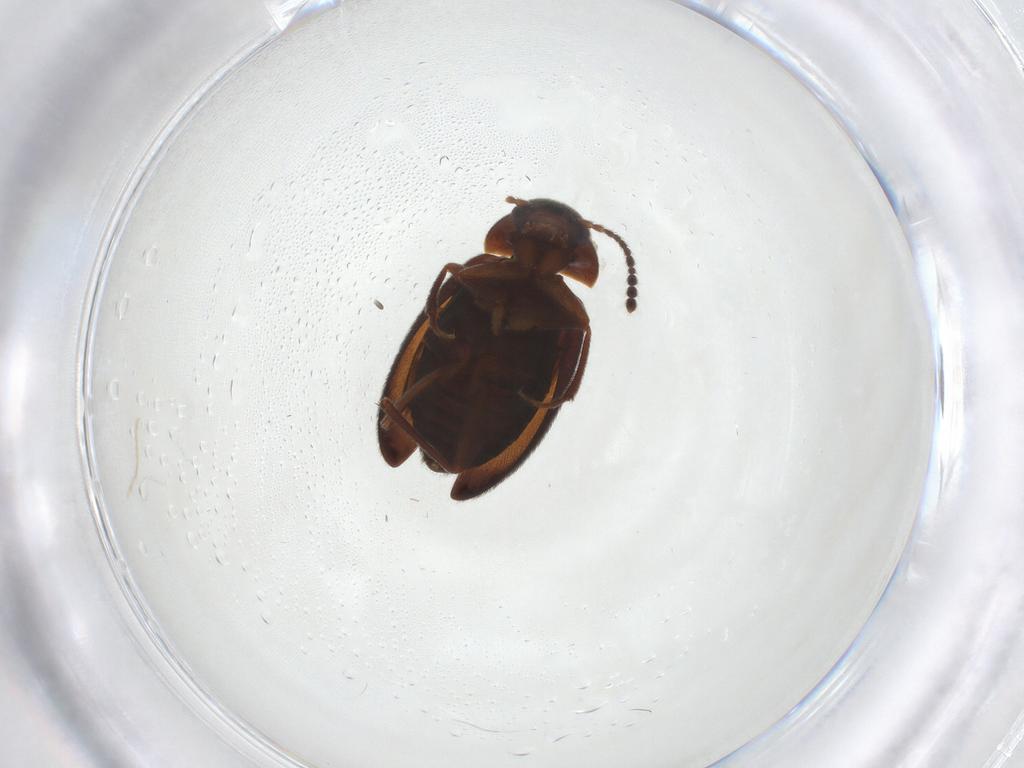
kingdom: Animalia
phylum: Arthropoda
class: Insecta
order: Coleoptera
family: Leiodidae
